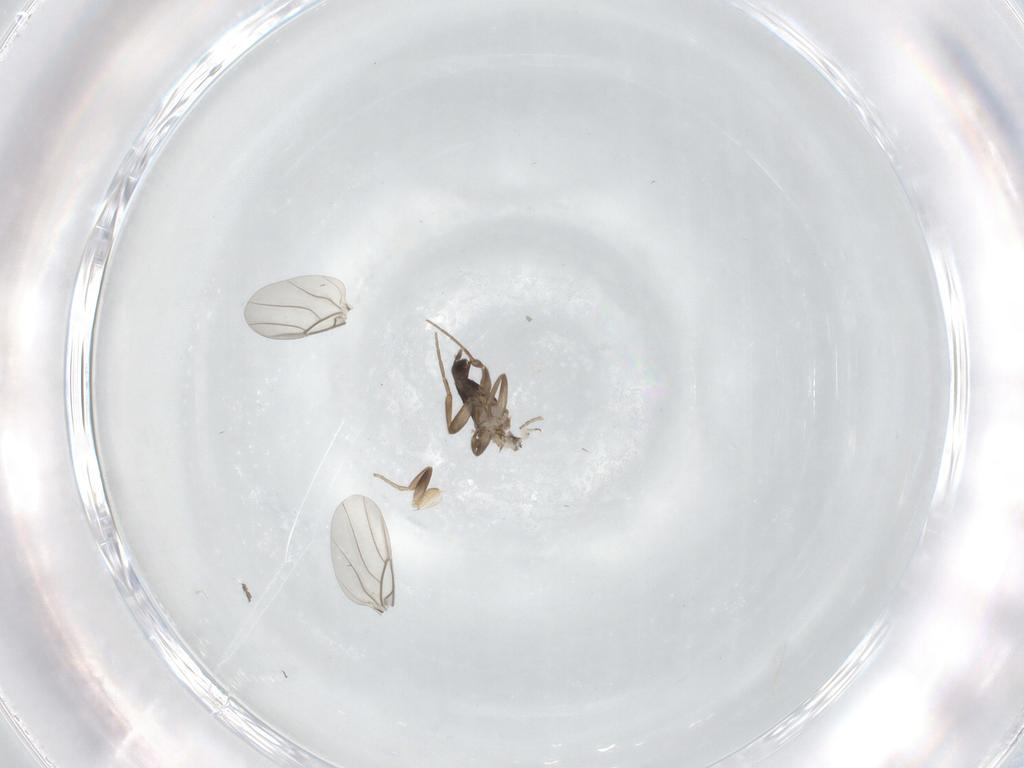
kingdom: Animalia
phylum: Arthropoda
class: Insecta
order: Diptera
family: Phoridae
